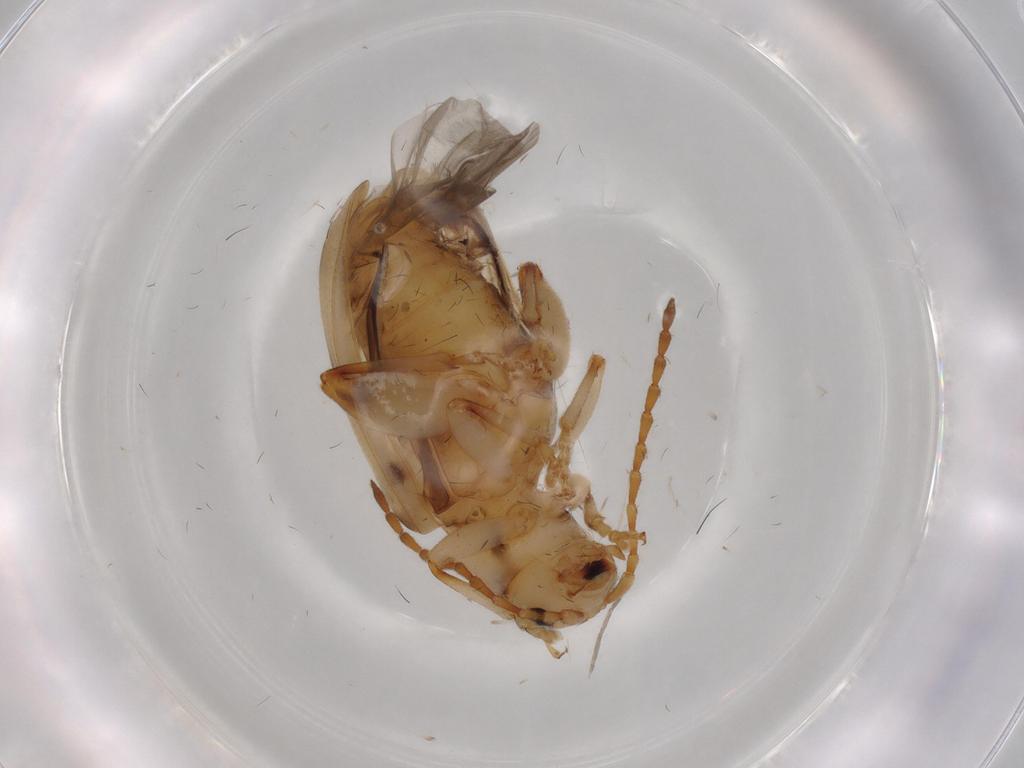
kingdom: Animalia
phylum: Arthropoda
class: Insecta
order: Coleoptera
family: Chrysomelidae
